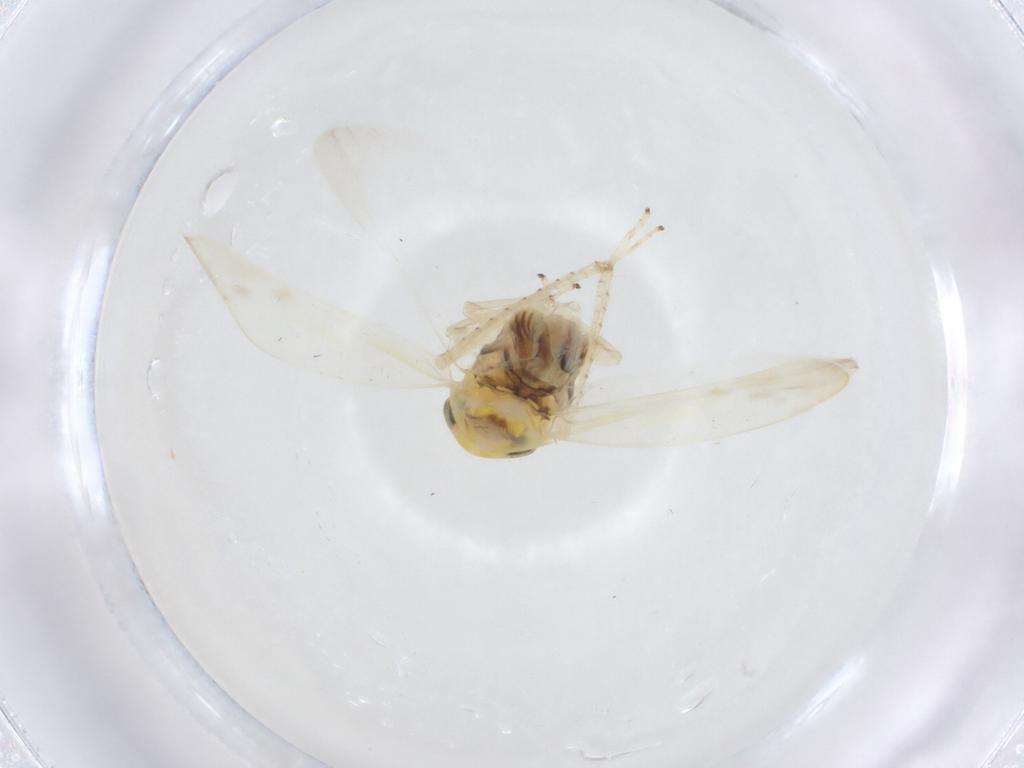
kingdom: Animalia
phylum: Arthropoda
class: Insecta
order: Hemiptera
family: Cicadellidae
